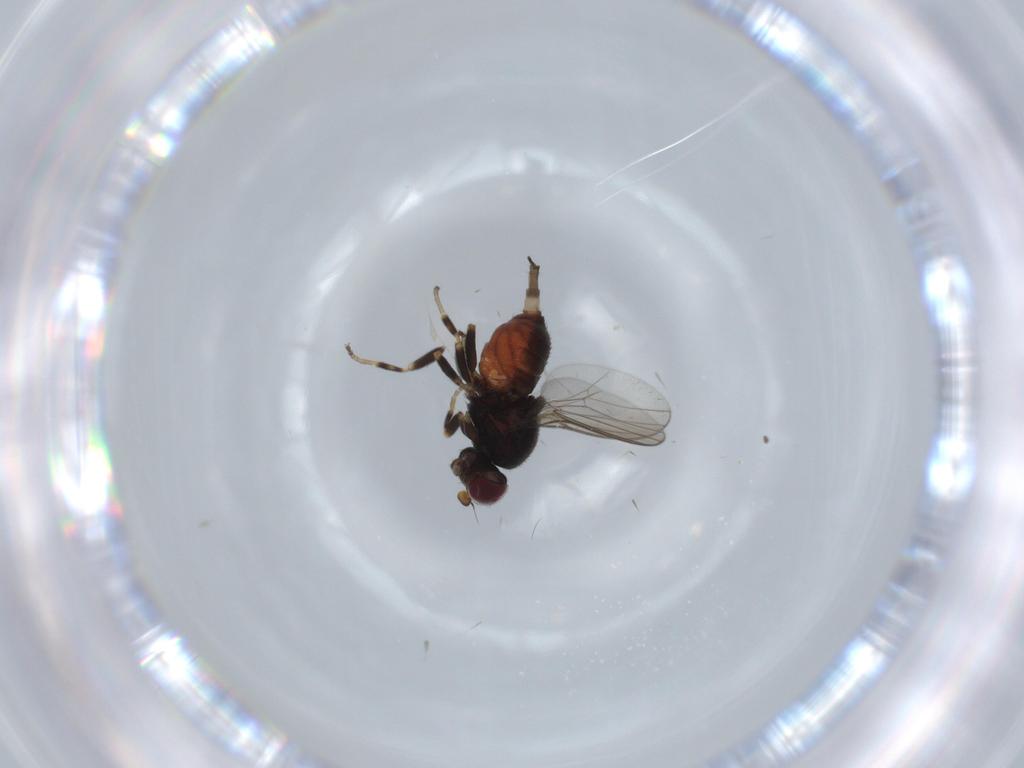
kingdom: Animalia
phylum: Arthropoda
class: Insecta
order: Diptera
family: Chloropidae
